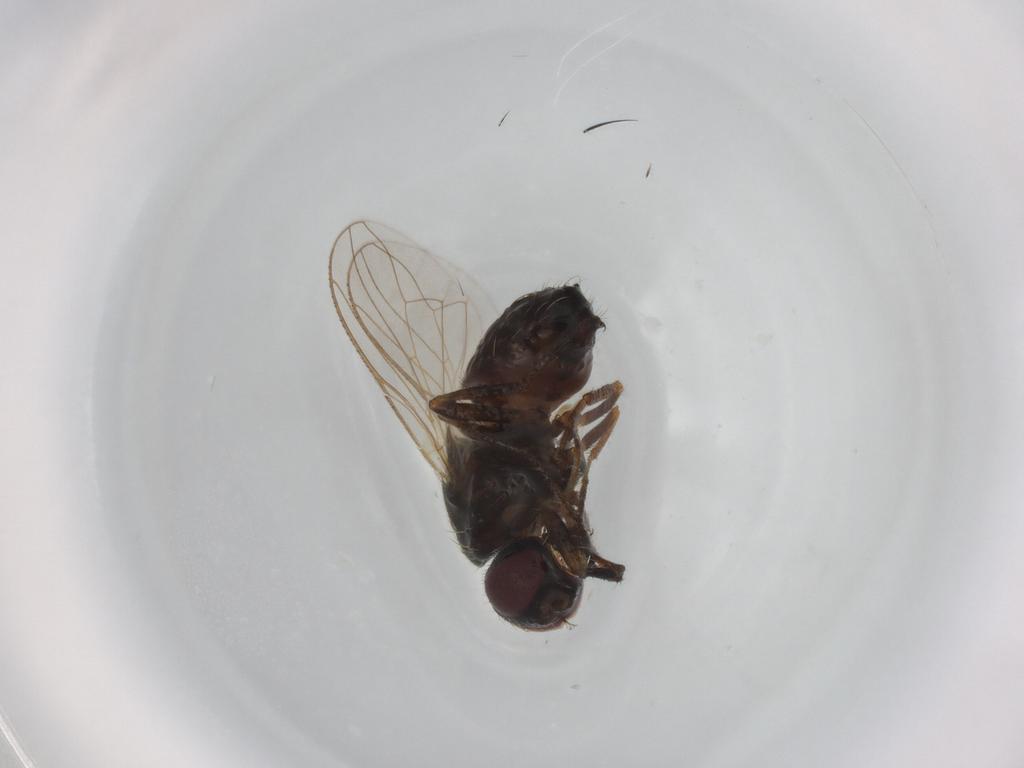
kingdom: Animalia
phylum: Arthropoda
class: Insecta
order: Diptera
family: Muscidae
